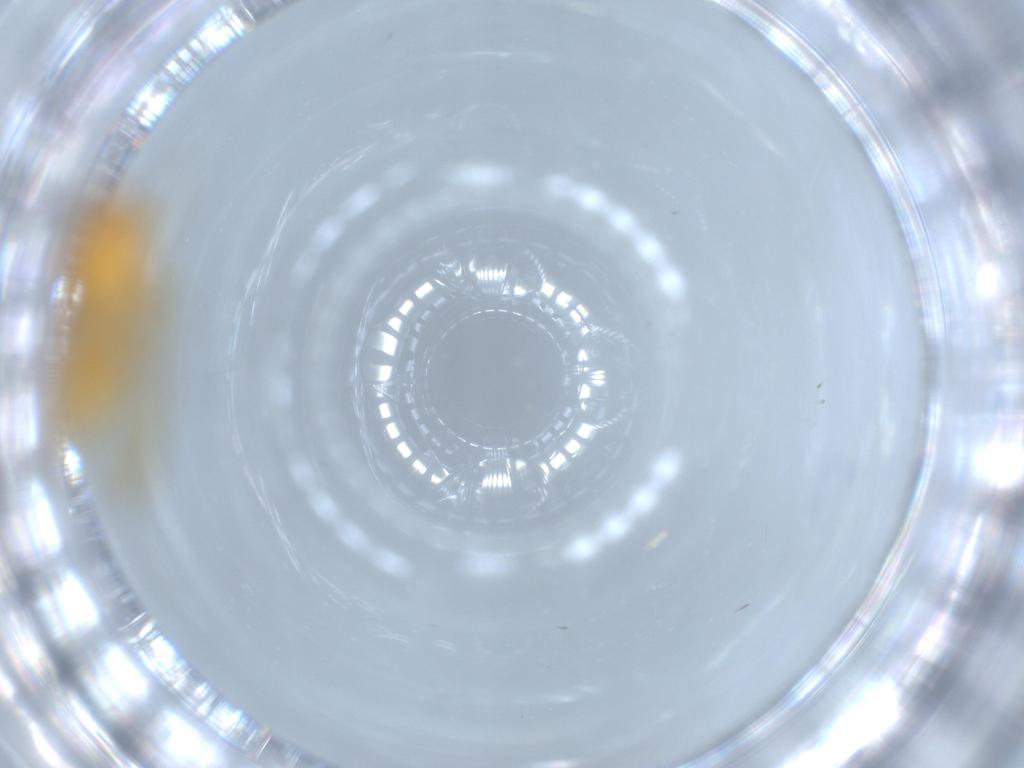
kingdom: Animalia
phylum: Arthropoda
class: Insecta
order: Hemiptera
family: Psyllidae
